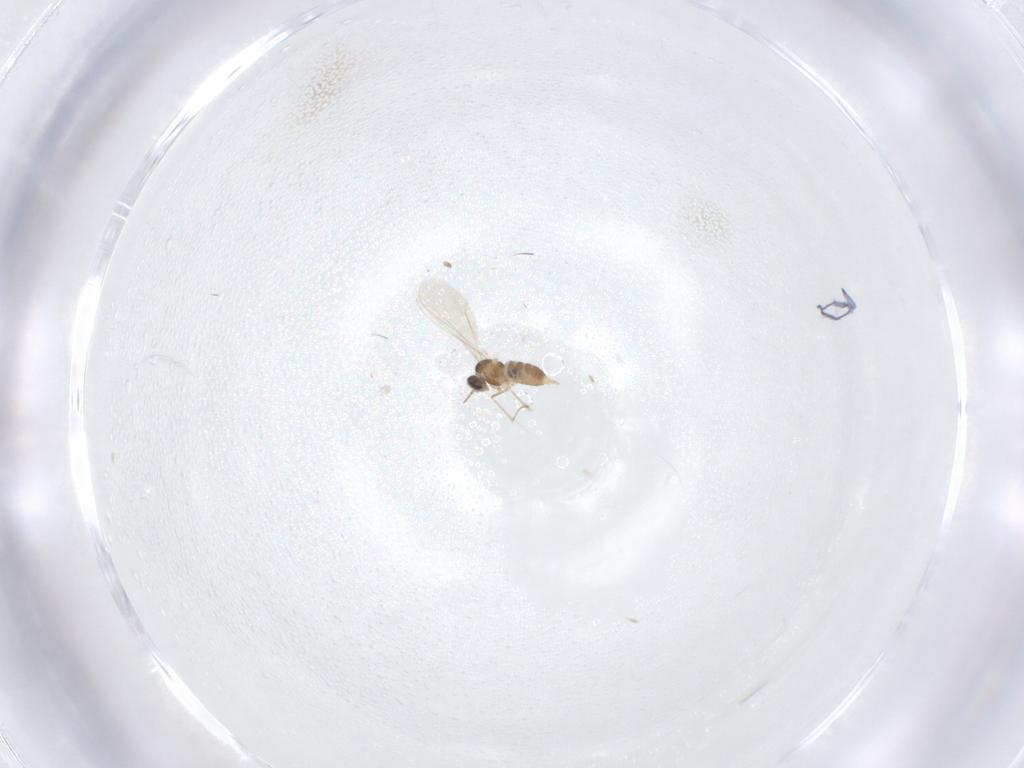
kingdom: Animalia
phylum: Arthropoda
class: Insecta
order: Diptera
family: Cecidomyiidae
